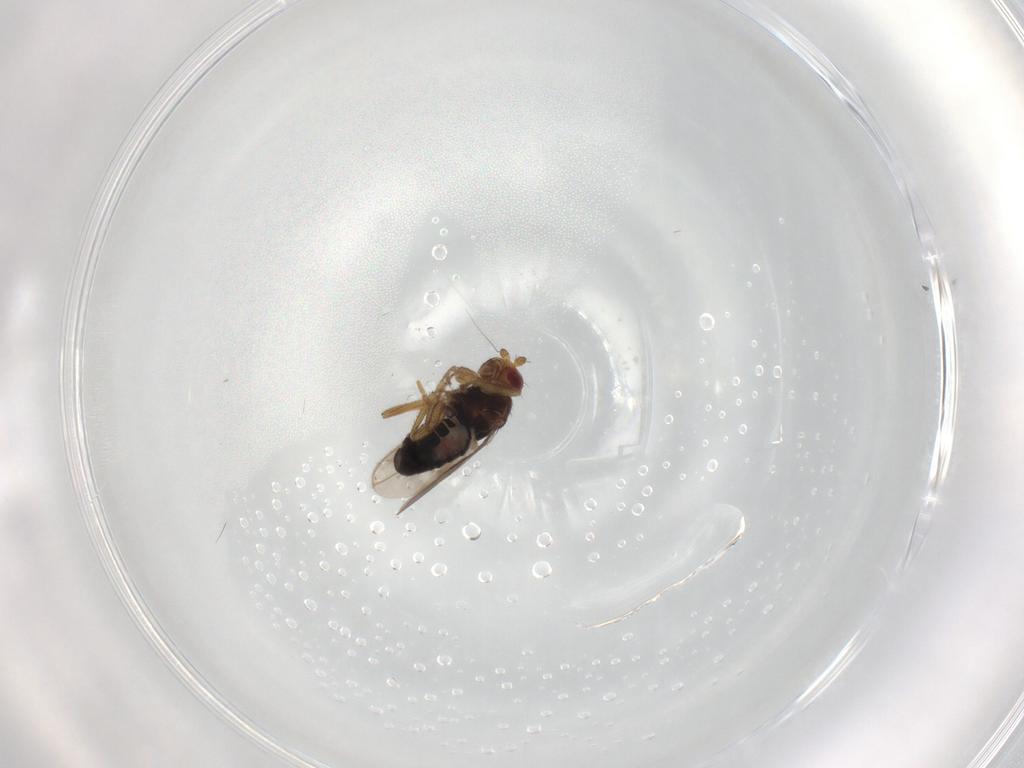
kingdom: Animalia
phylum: Arthropoda
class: Insecta
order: Diptera
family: Sphaeroceridae
